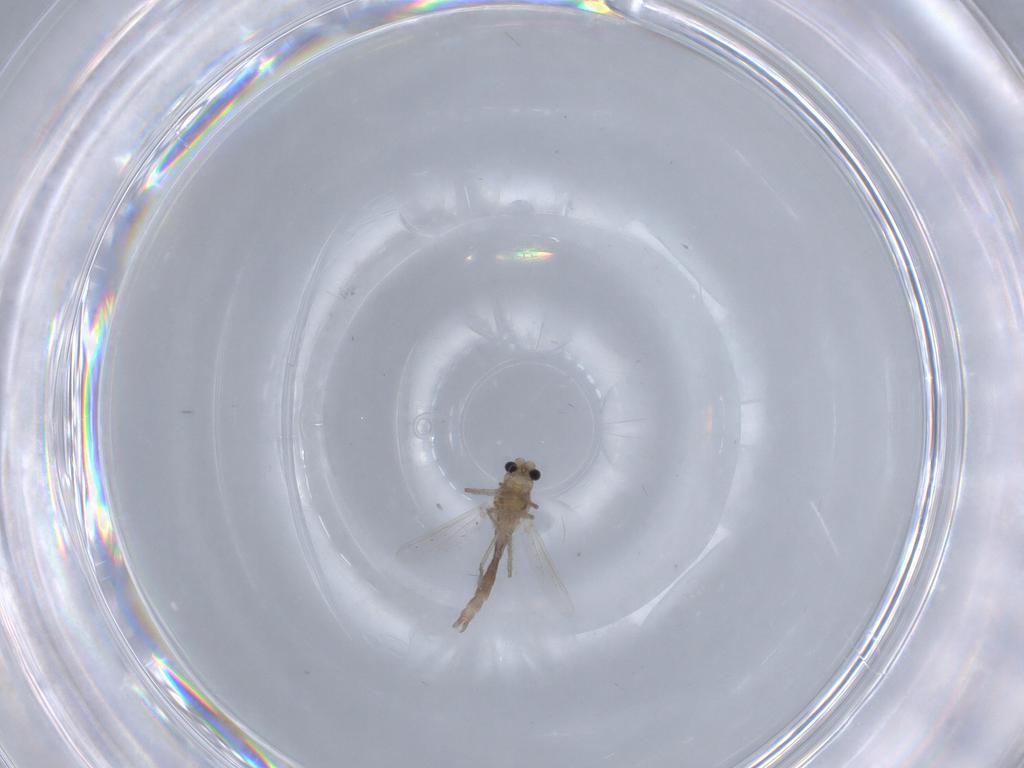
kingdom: Animalia
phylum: Arthropoda
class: Insecta
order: Diptera
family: Chironomidae
